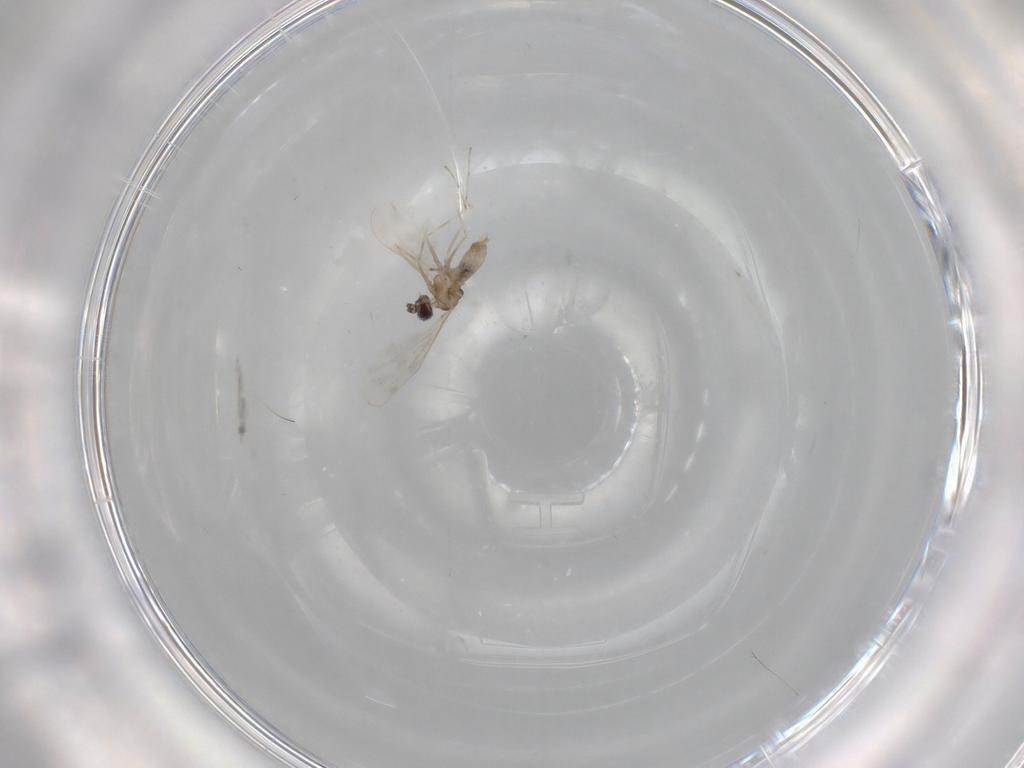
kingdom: Animalia
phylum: Arthropoda
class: Insecta
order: Diptera
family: Cecidomyiidae
